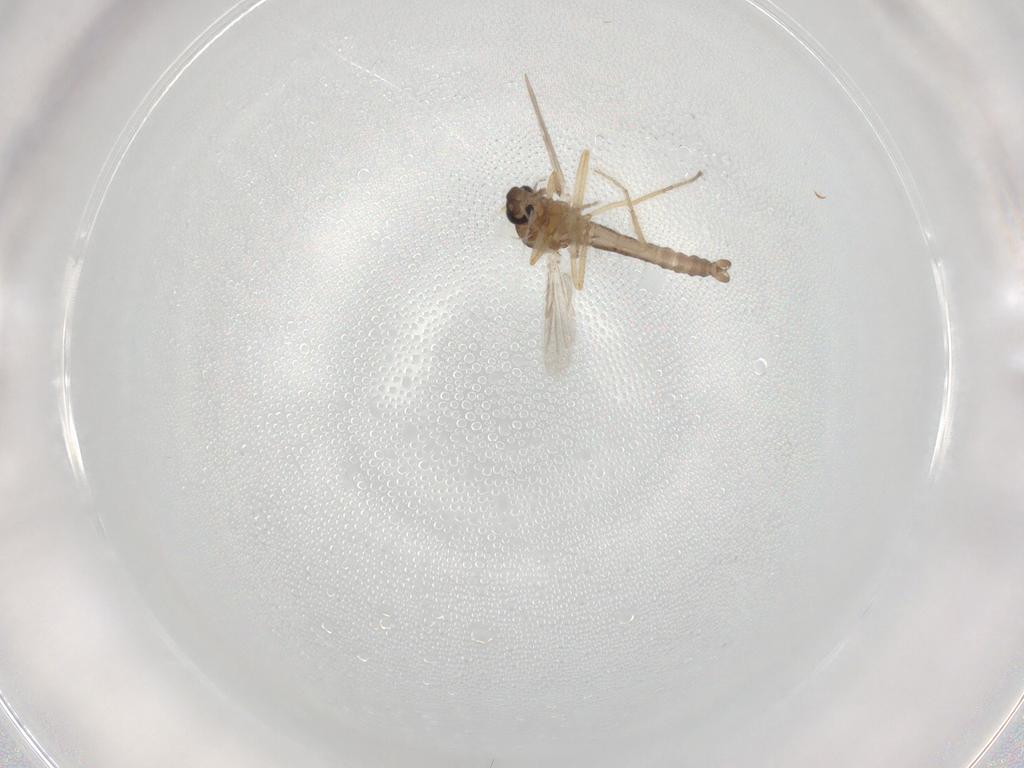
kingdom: Animalia
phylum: Arthropoda
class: Insecta
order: Diptera
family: Ceratopogonidae
